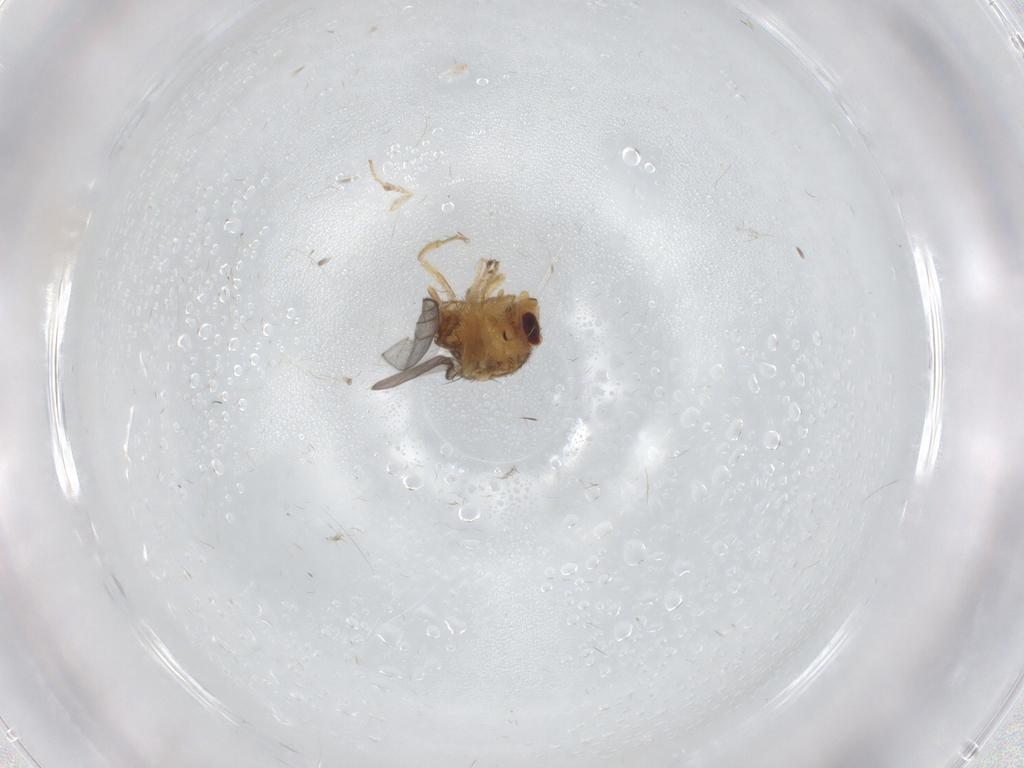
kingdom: Animalia
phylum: Arthropoda
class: Insecta
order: Diptera
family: Chloropidae
